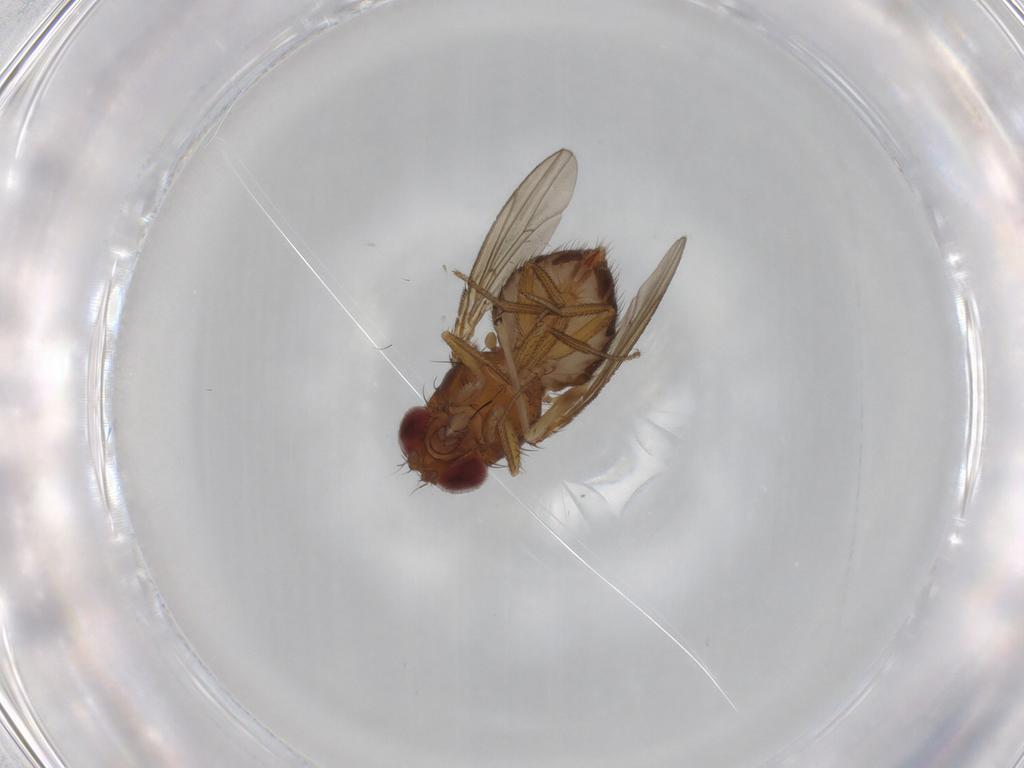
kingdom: Animalia
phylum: Arthropoda
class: Insecta
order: Diptera
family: Drosophilidae
